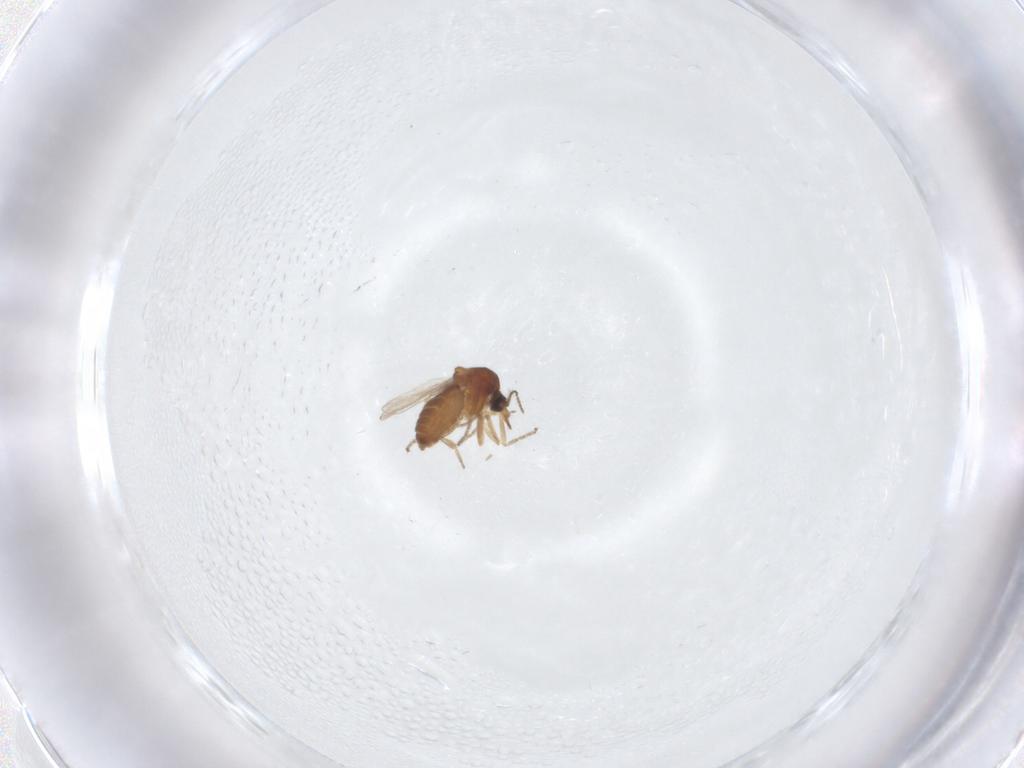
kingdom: Animalia
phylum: Arthropoda
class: Insecta
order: Diptera
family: Ceratopogonidae
